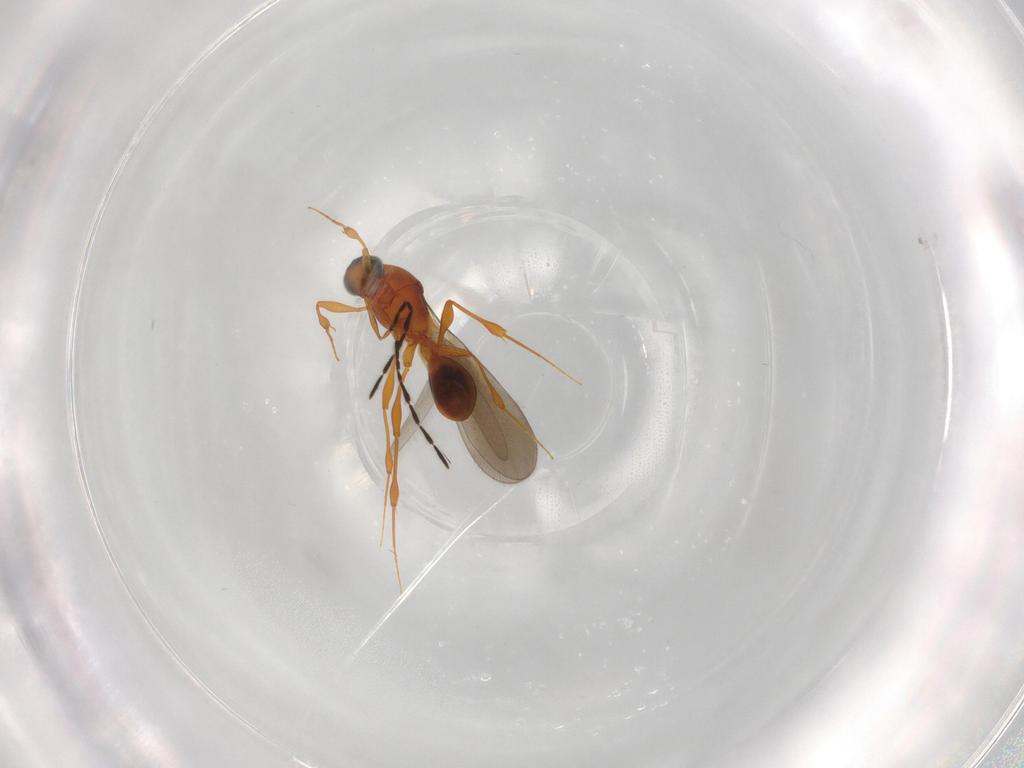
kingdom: Animalia
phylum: Arthropoda
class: Insecta
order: Hymenoptera
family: Platygastridae
